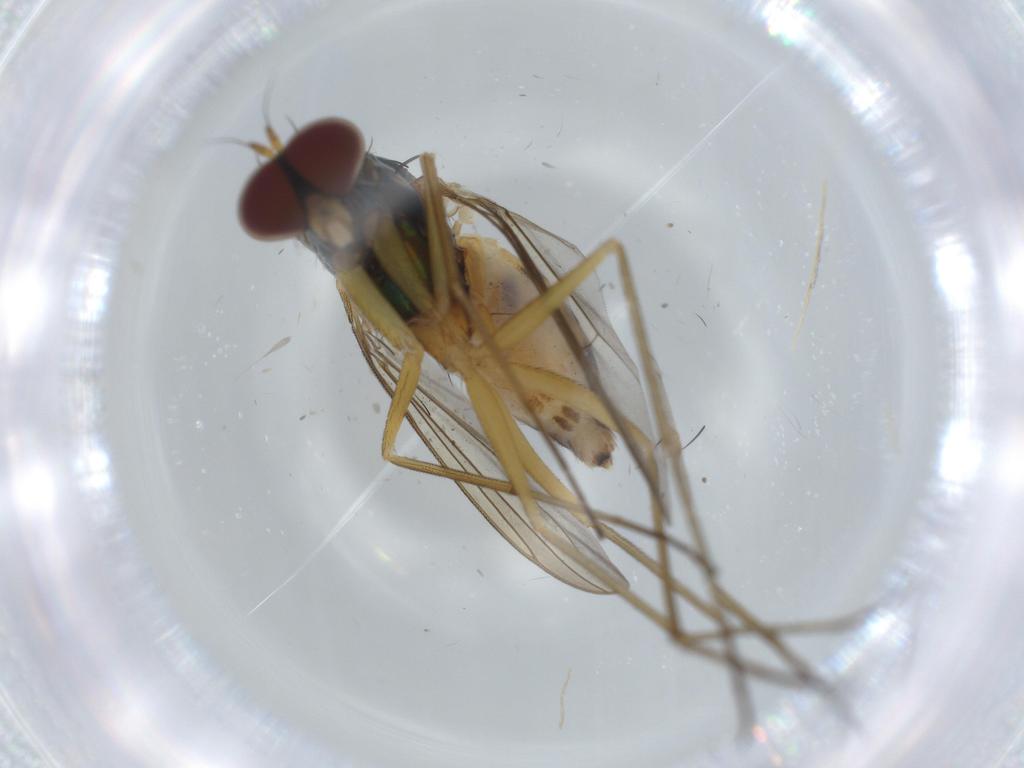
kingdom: Animalia
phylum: Arthropoda
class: Insecta
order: Diptera
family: Dolichopodidae
